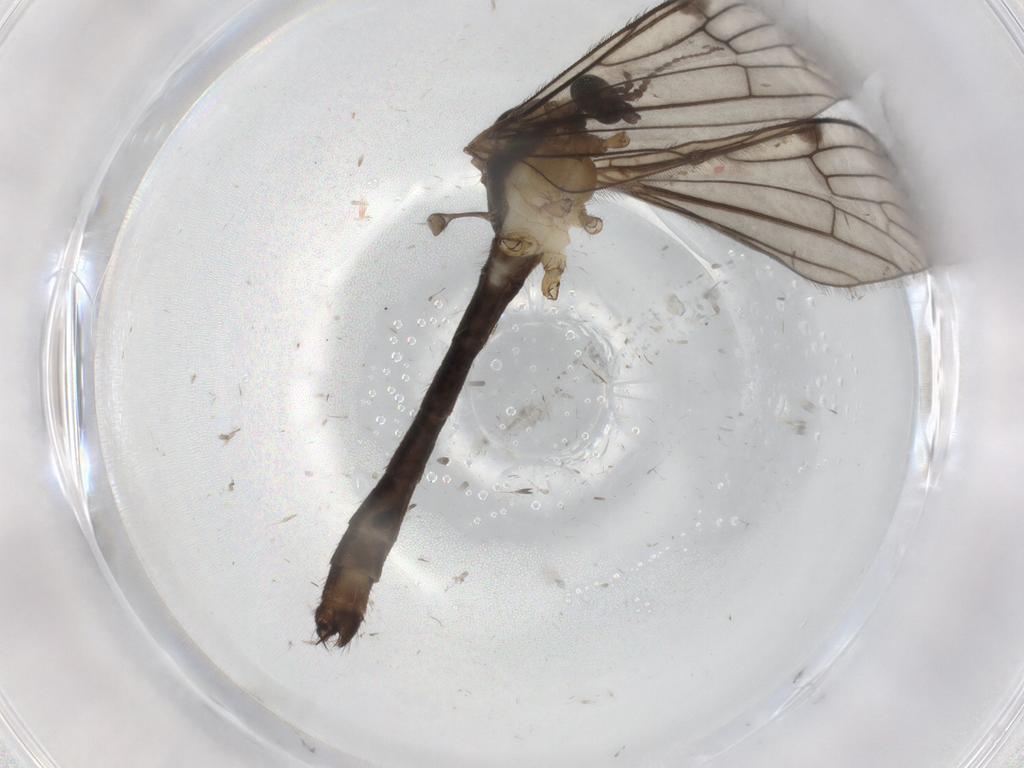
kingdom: Animalia
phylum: Arthropoda
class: Insecta
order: Diptera
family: Limoniidae
